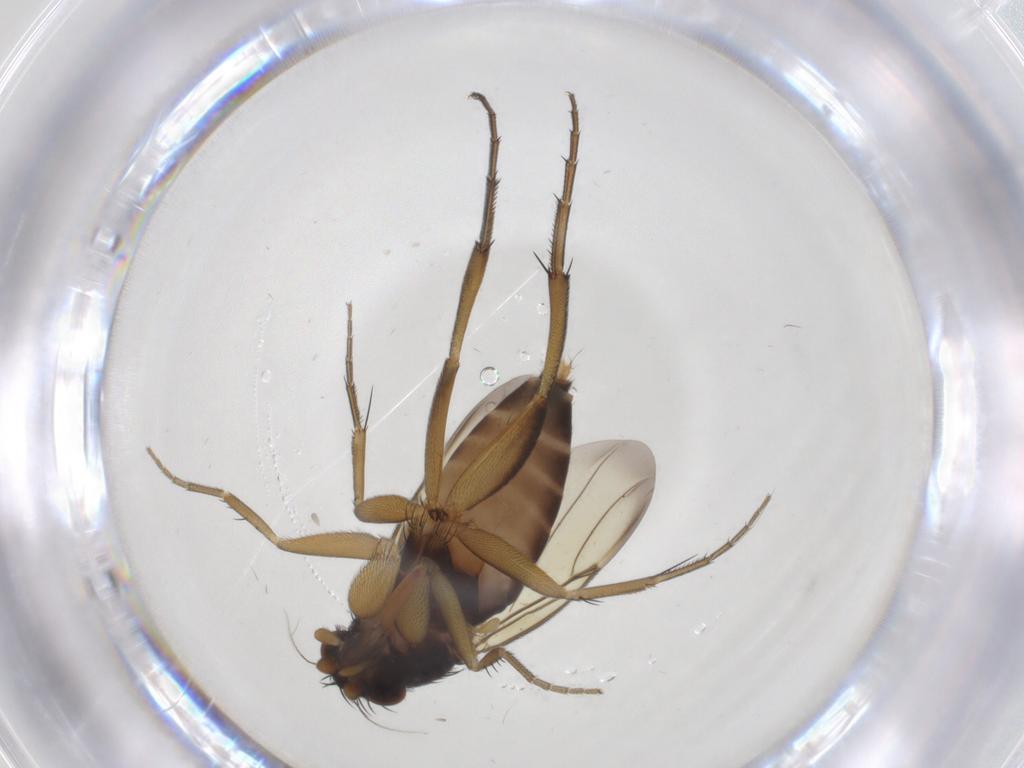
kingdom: Animalia
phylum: Arthropoda
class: Insecta
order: Diptera
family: Phoridae
